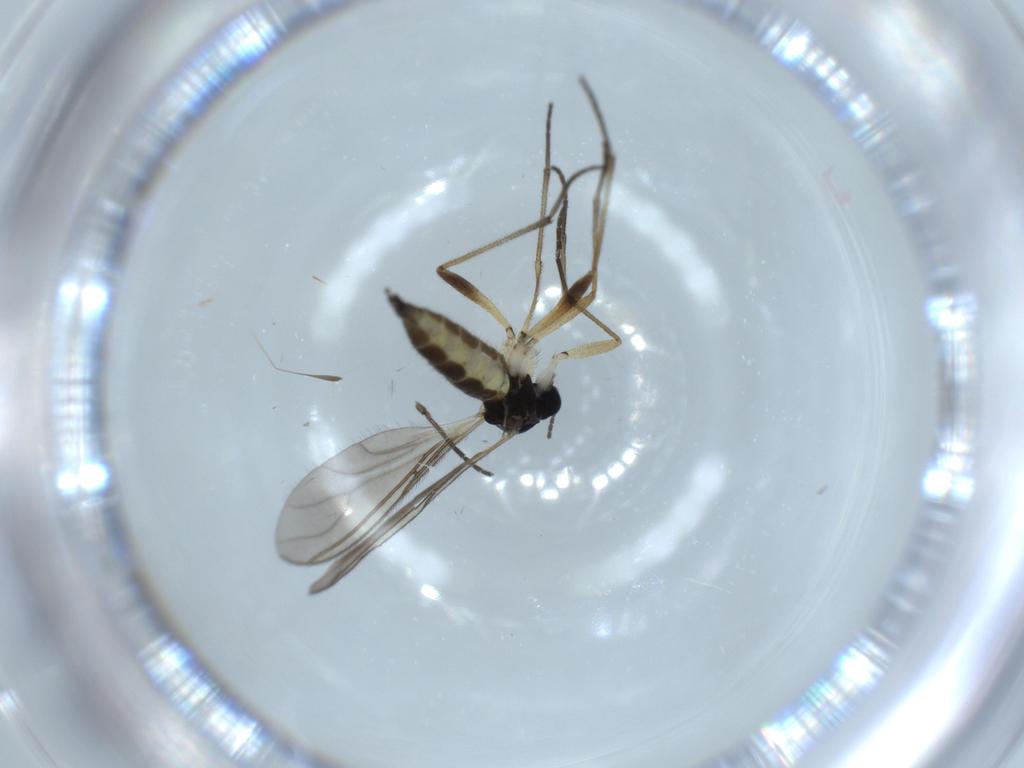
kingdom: Animalia
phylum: Arthropoda
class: Insecta
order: Diptera
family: Sciaridae
